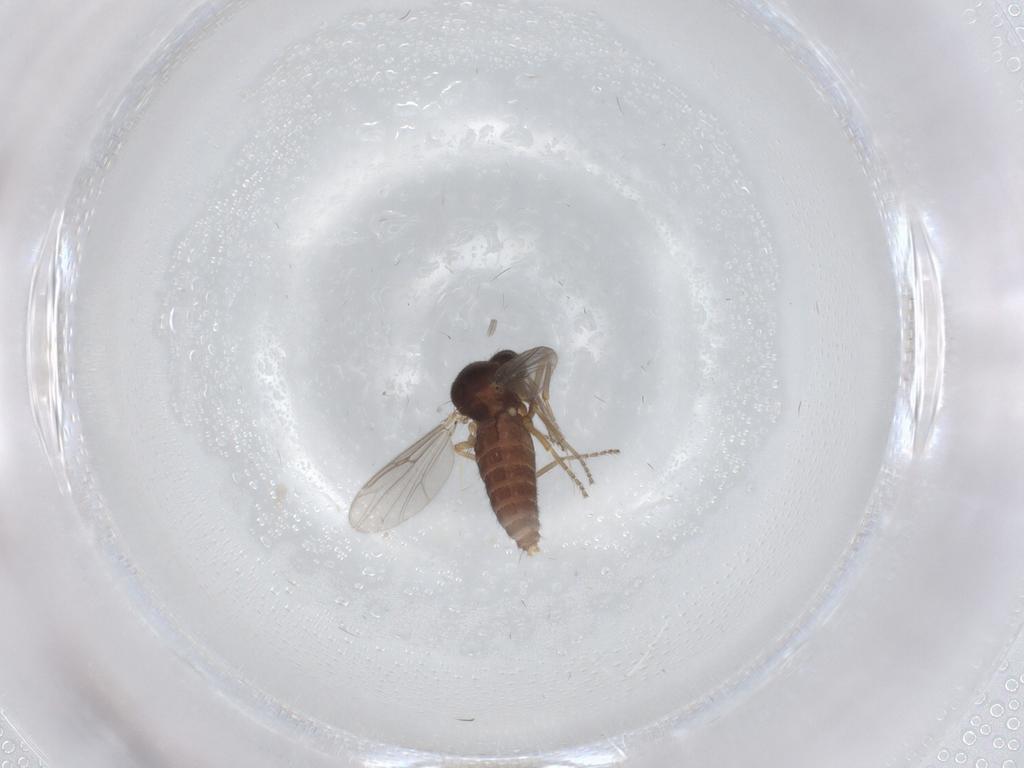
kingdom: Animalia
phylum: Arthropoda
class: Insecta
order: Diptera
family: Ceratopogonidae
